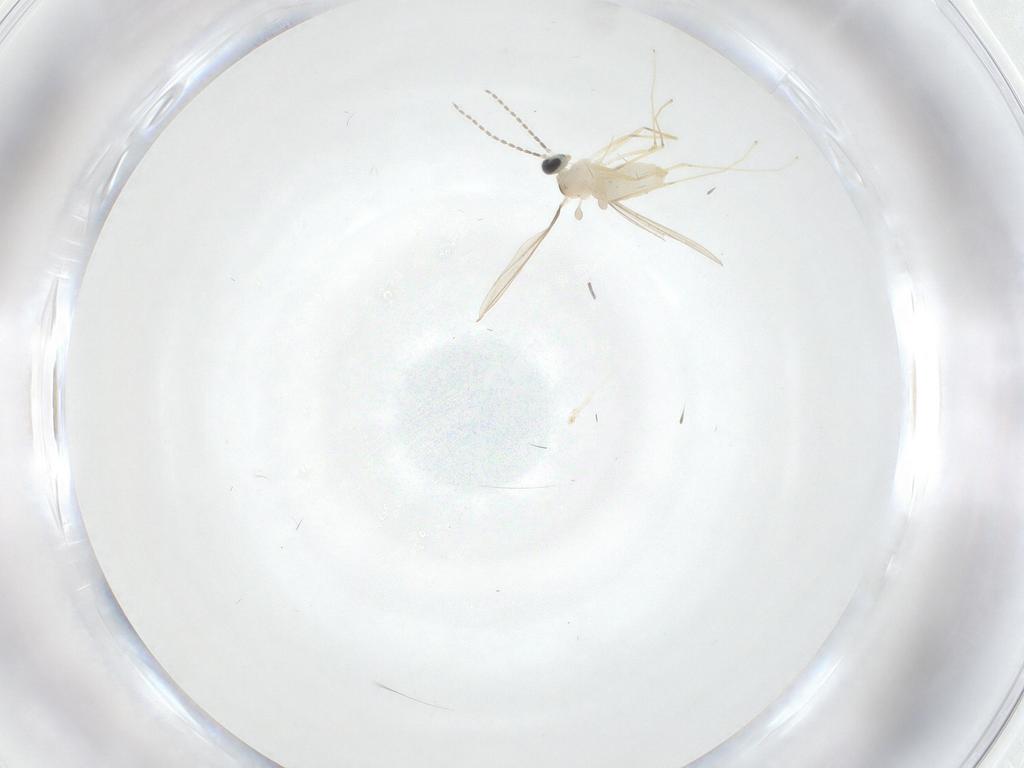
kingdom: Animalia
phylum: Arthropoda
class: Insecta
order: Diptera
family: Cecidomyiidae
